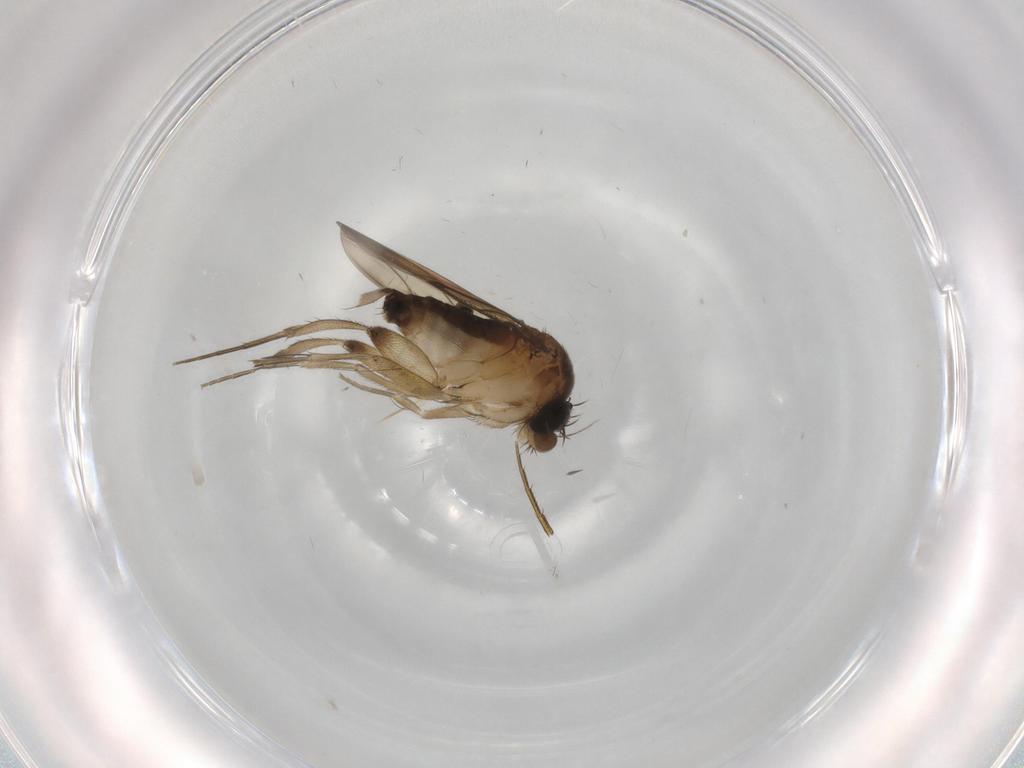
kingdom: Animalia
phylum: Arthropoda
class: Insecta
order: Diptera
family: Phoridae
